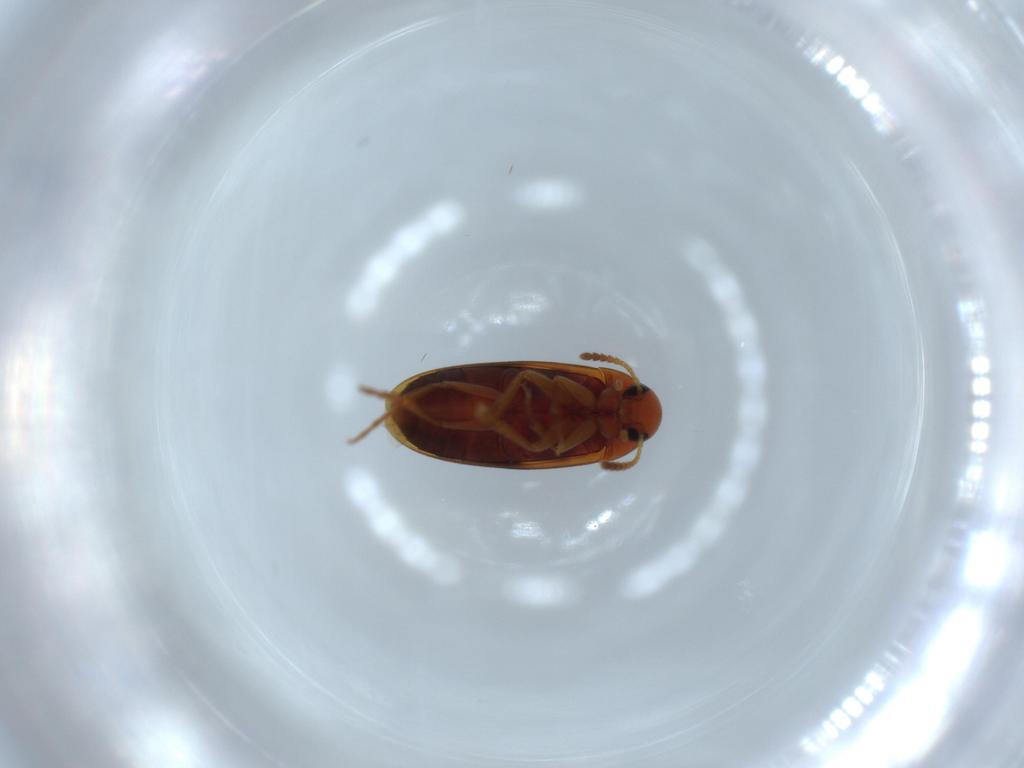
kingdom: Animalia
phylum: Arthropoda
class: Insecta
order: Coleoptera
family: Scraptiidae
